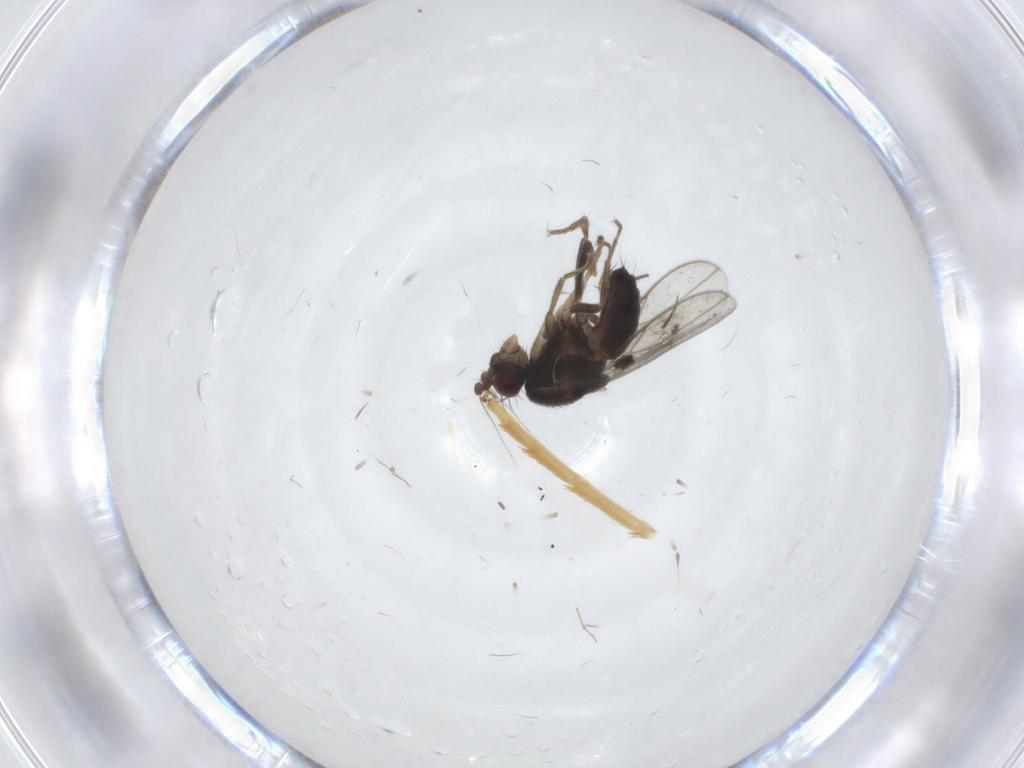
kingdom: Animalia
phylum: Arthropoda
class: Insecta
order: Diptera
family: Sphaeroceridae
